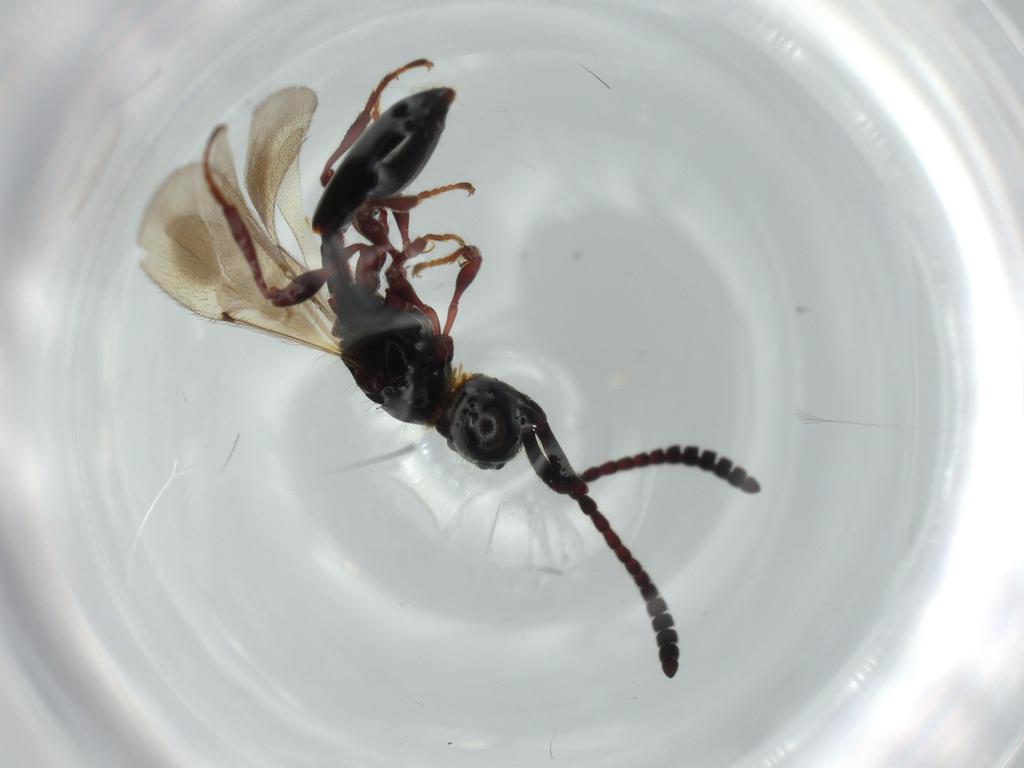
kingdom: Animalia
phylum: Arthropoda
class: Insecta
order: Hymenoptera
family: Diapriidae
